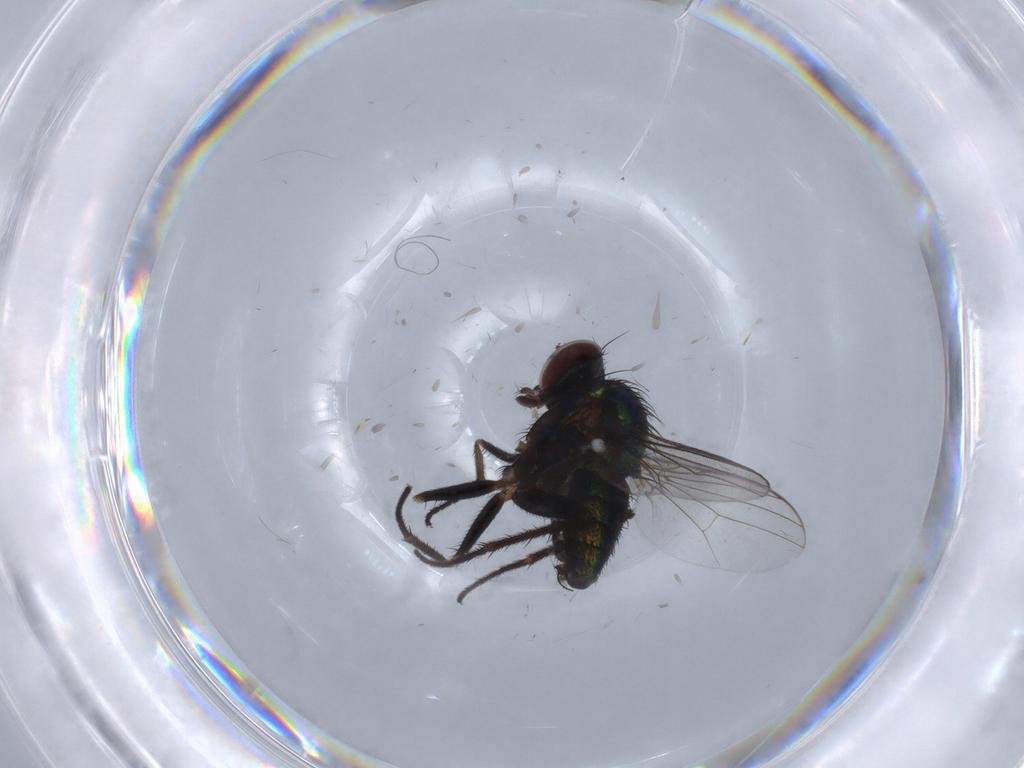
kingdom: Animalia
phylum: Arthropoda
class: Insecta
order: Diptera
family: Dolichopodidae
